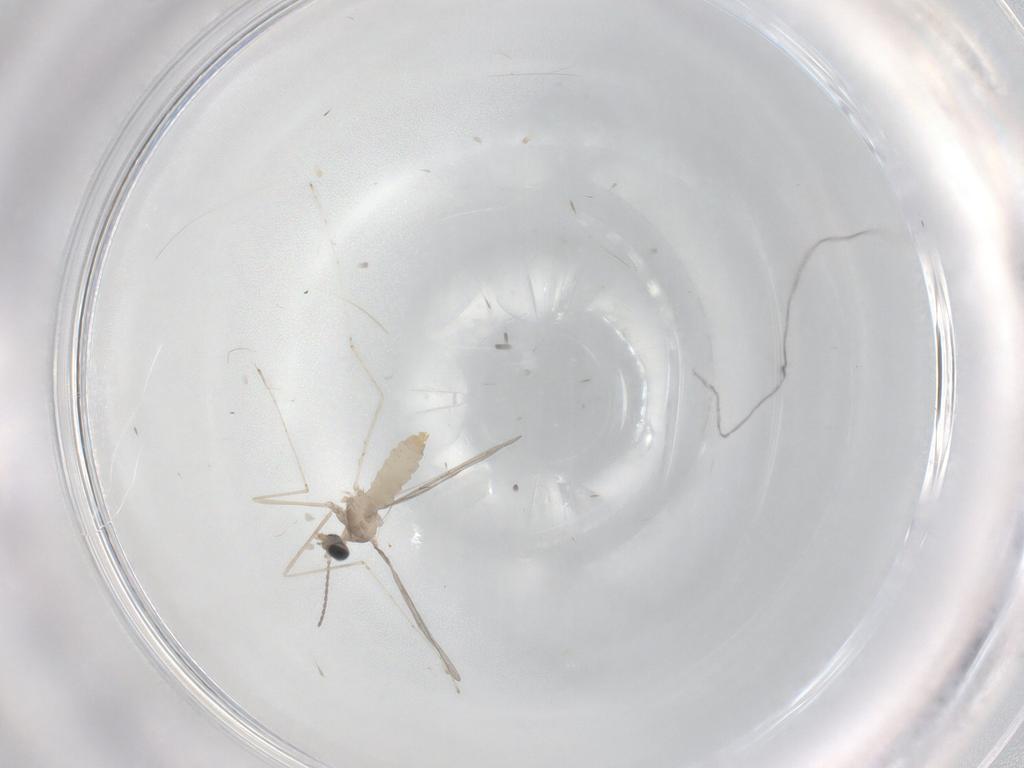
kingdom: Animalia
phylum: Arthropoda
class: Insecta
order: Diptera
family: Cecidomyiidae
